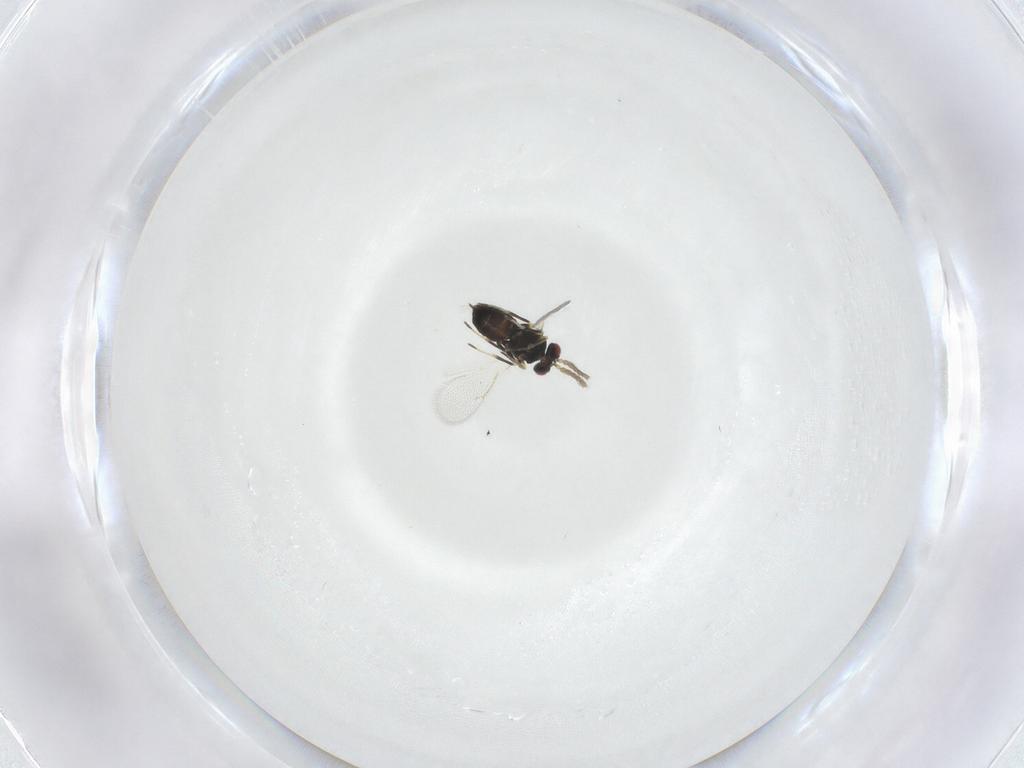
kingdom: Animalia
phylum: Arthropoda
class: Insecta
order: Hymenoptera
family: Eulophidae
